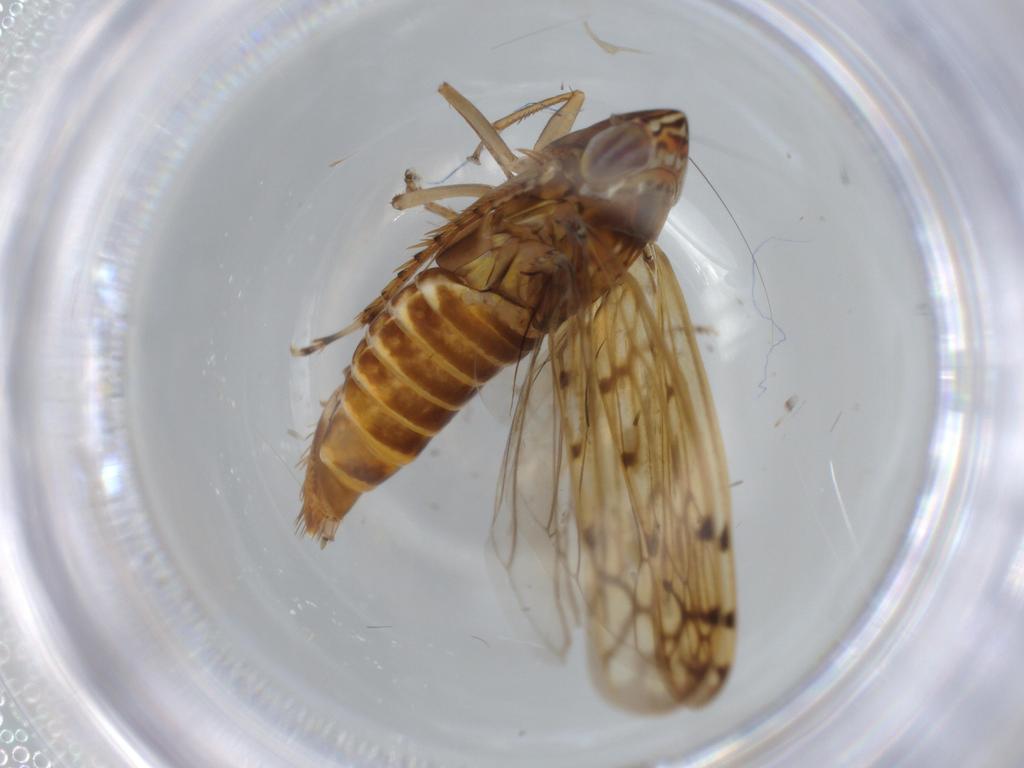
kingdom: Animalia
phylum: Arthropoda
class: Insecta
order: Hemiptera
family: Cicadellidae
